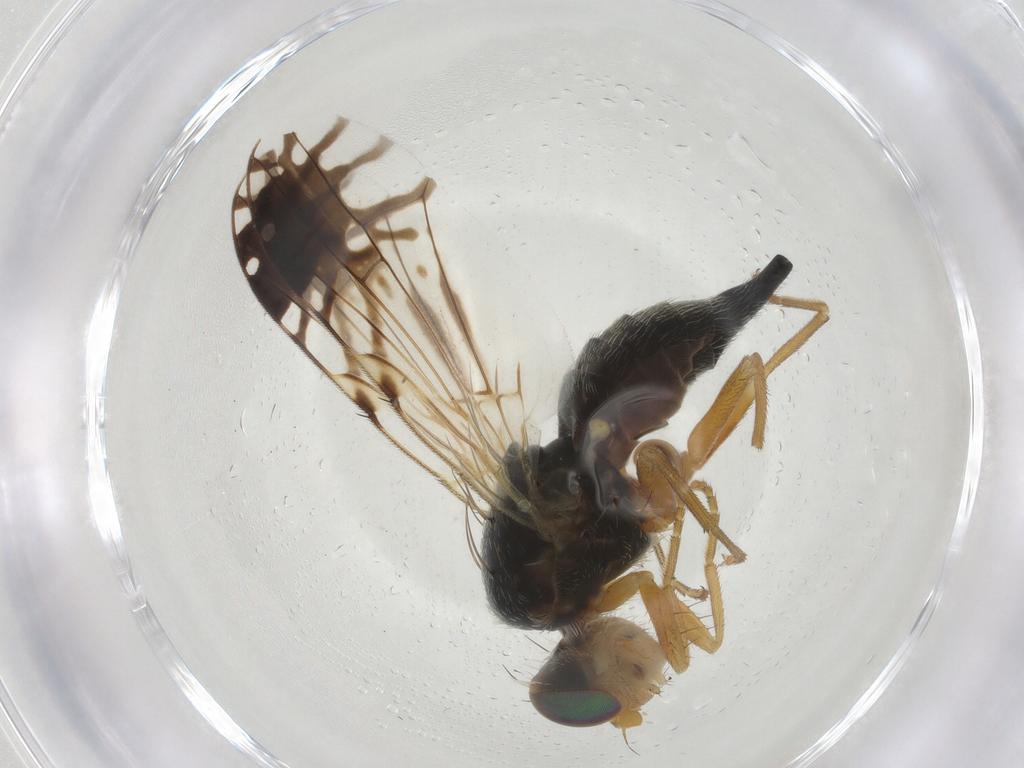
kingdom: Animalia
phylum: Arthropoda
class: Insecta
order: Diptera
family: Tephritidae
